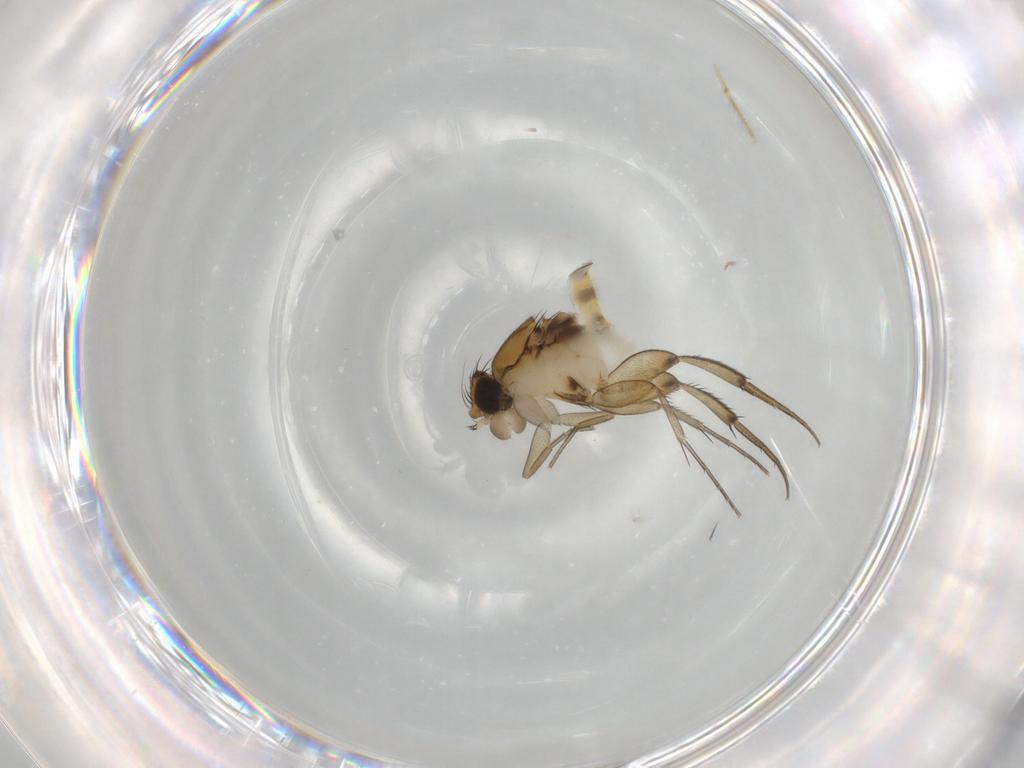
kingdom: Animalia
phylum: Arthropoda
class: Insecta
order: Diptera
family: Phoridae
